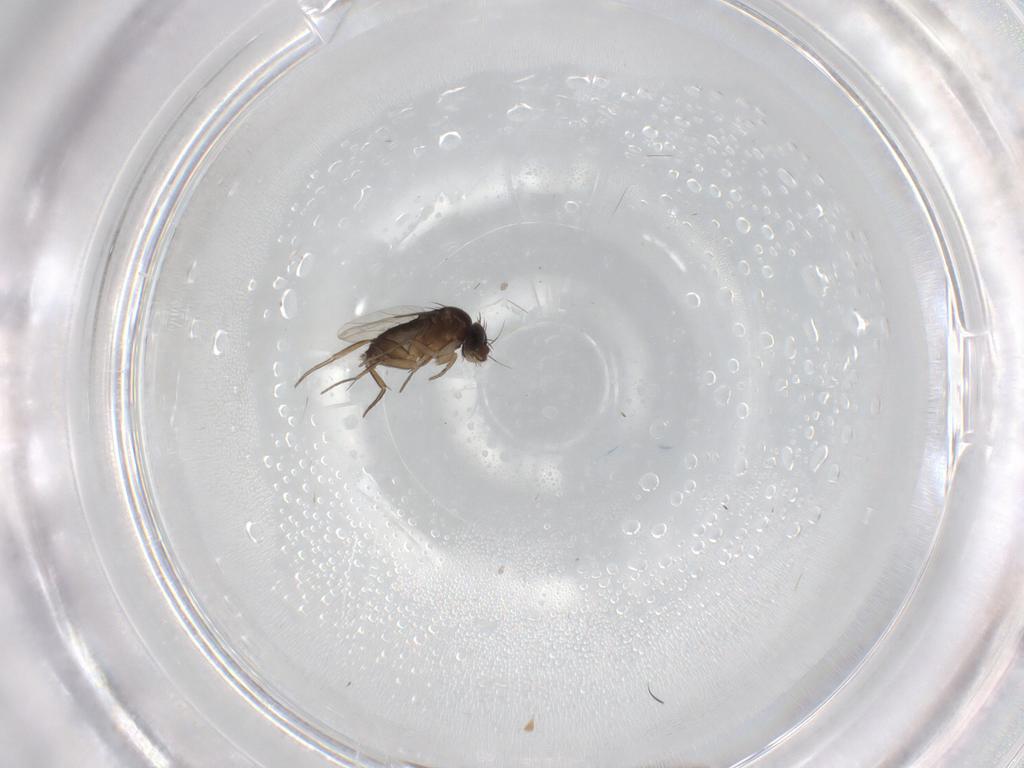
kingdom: Animalia
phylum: Arthropoda
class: Insecta
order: Diptera
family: Phoridae
